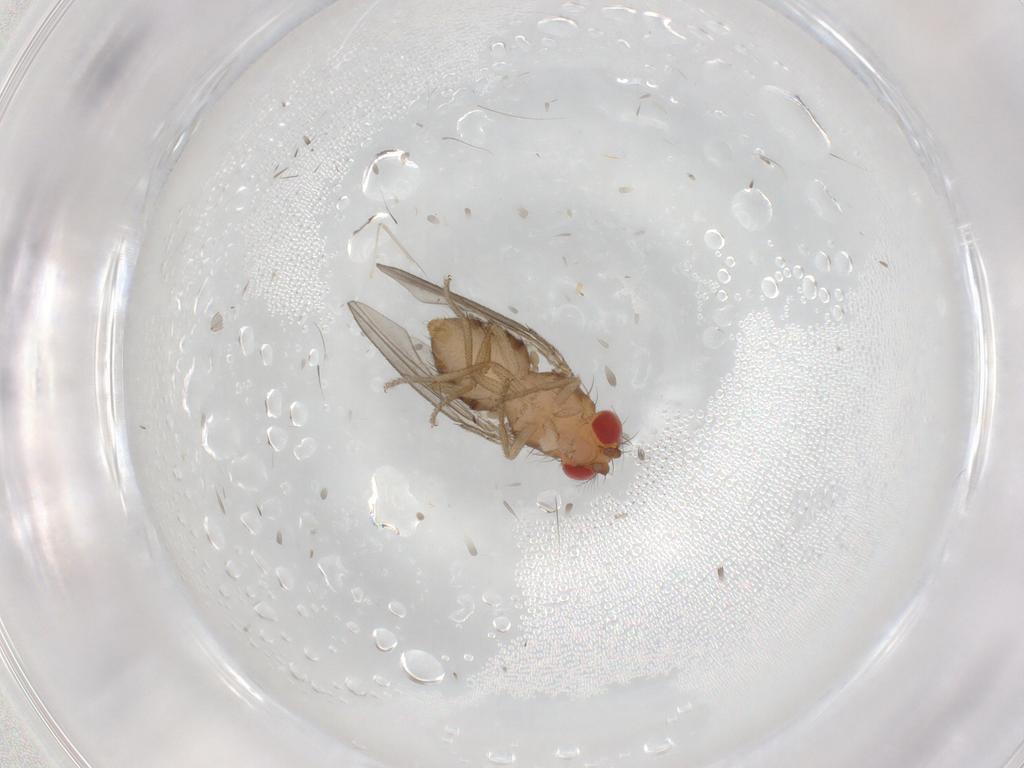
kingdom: Animalia
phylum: Arthropoda
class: Insecta
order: Diptera
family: Drosophilidae
